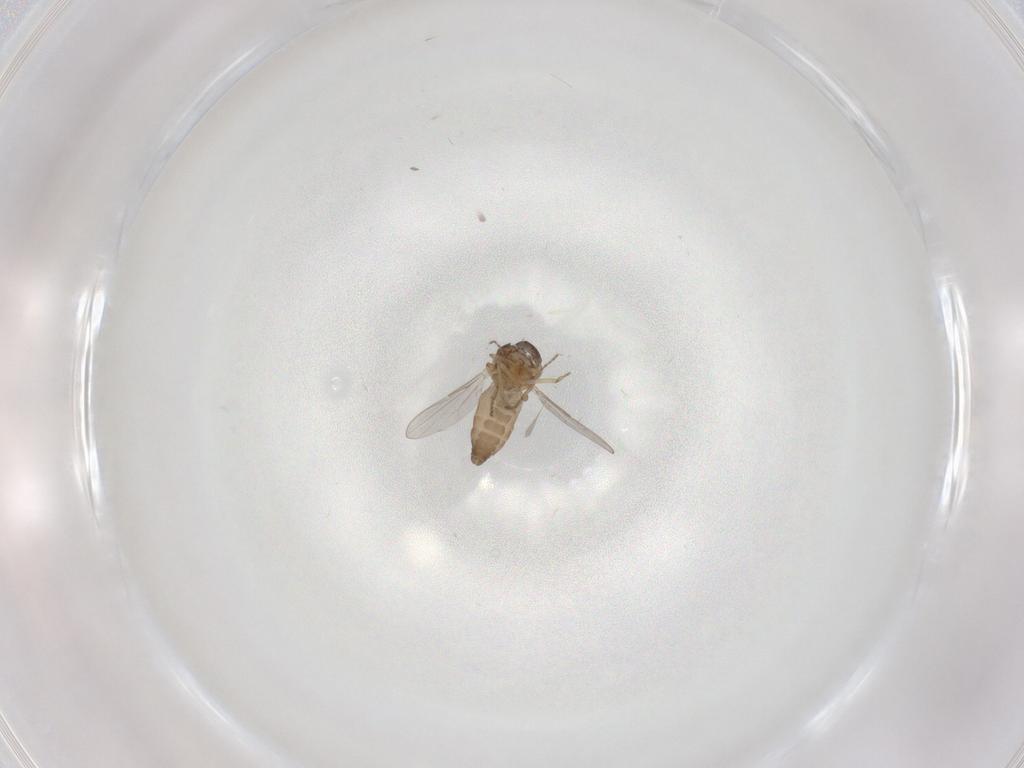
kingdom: Animalia
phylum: Arthropoda
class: Insecta
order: Diptera
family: Ceratopogonidae
